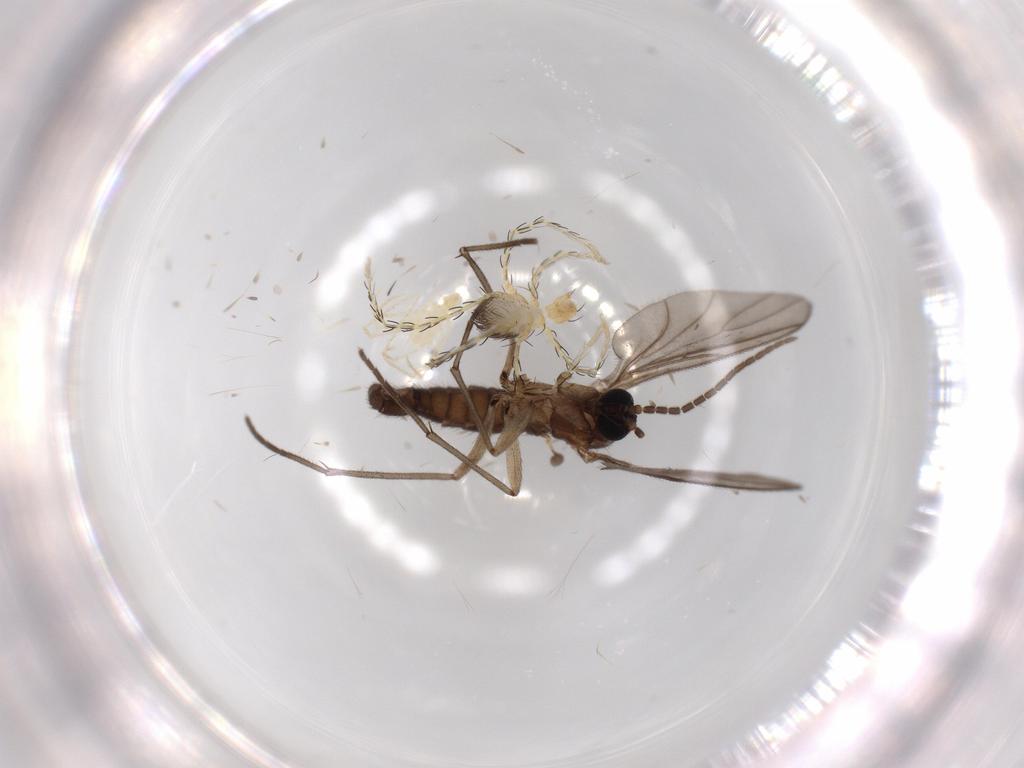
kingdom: Animalia
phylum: Arthropoda
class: Insecta
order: Diptera
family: Sciaridae
